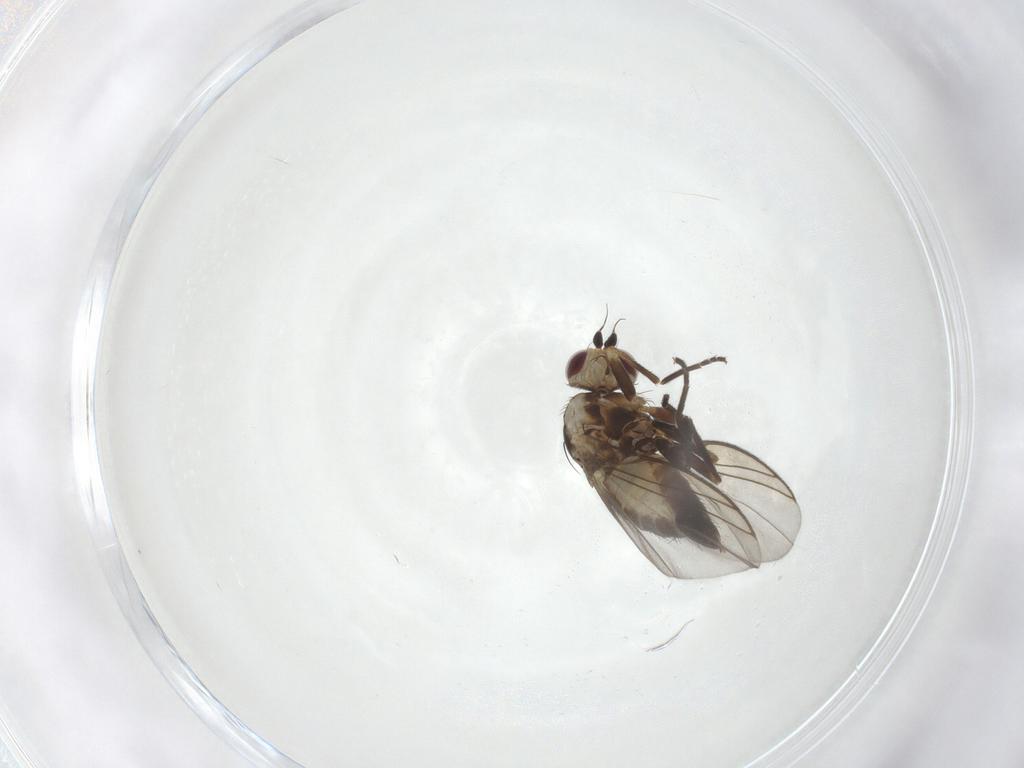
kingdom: Animalia
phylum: Arthropoda
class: Insecta
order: Diptera
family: Agromyzidae
